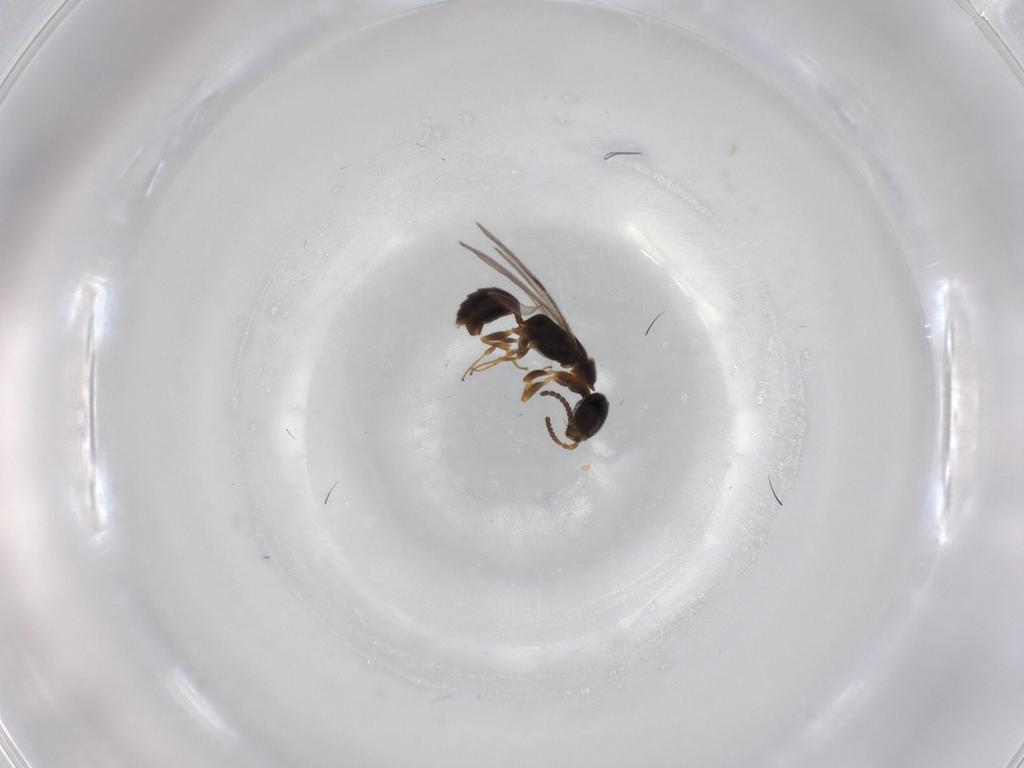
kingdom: Animalia
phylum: Arthropoda
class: Insecta
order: Hymenoptera
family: Bethylidae
